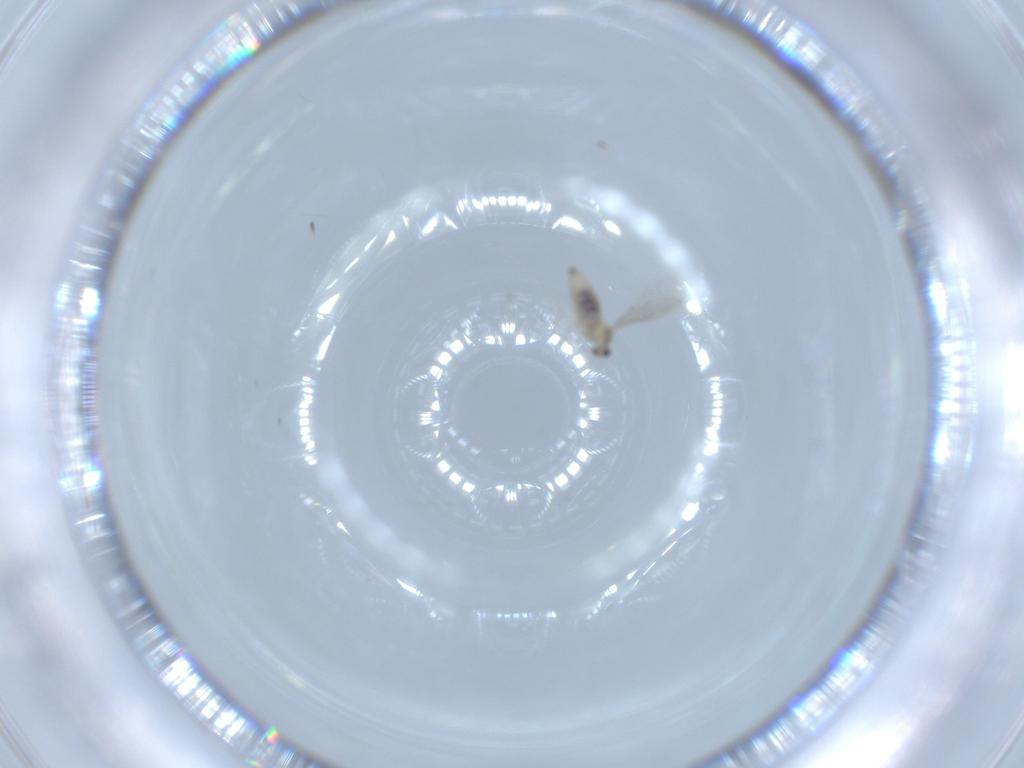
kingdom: Animalia
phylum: Arthropoda
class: Insecta
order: Diptera
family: Cecidomyiidae
